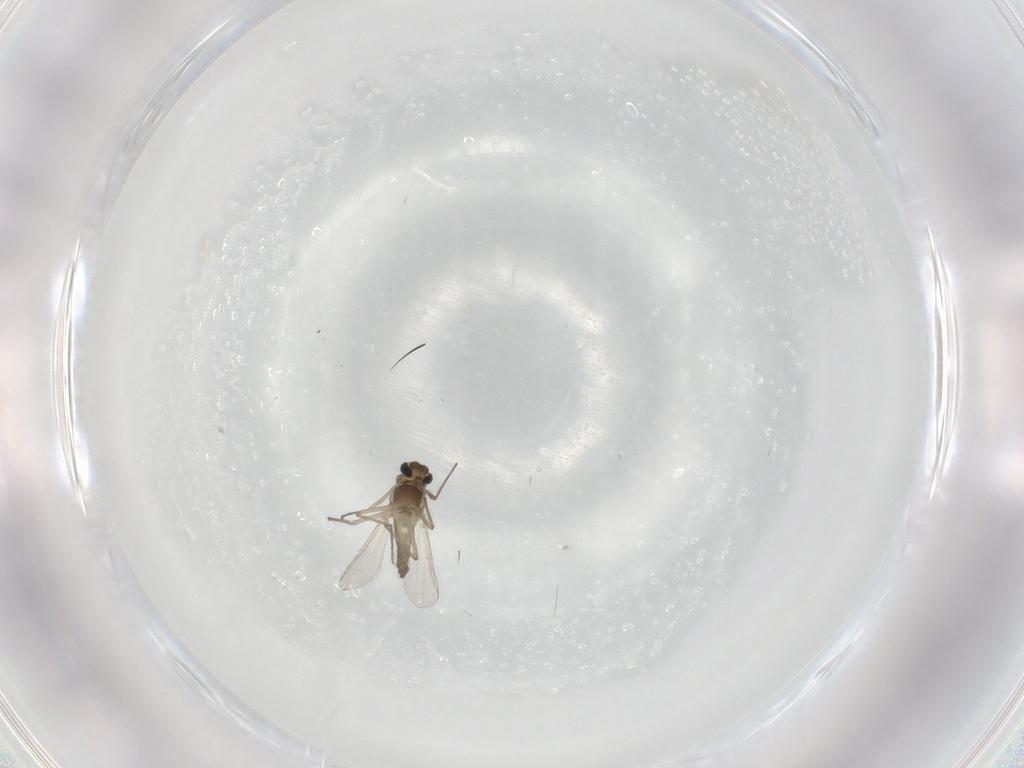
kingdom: Animalia
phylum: Arthropoda
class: Insecta
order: Diptera
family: Chironomidae
